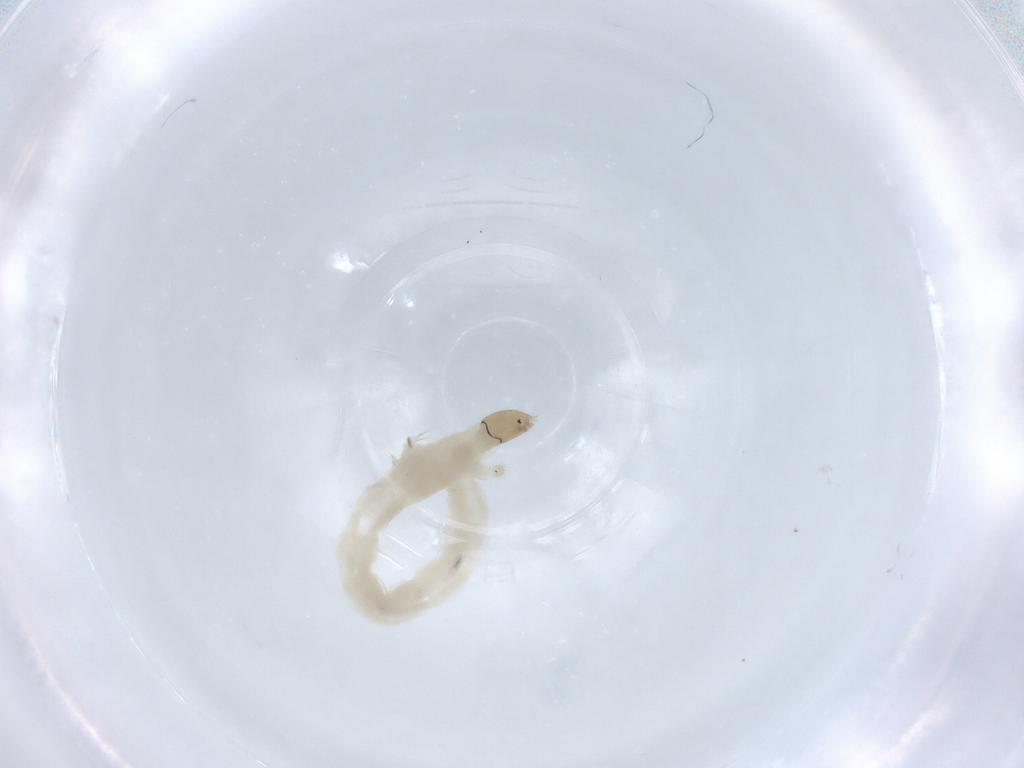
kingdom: Animalia
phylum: Arthropoda
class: Insecta
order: Diptera
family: Chironomidae
